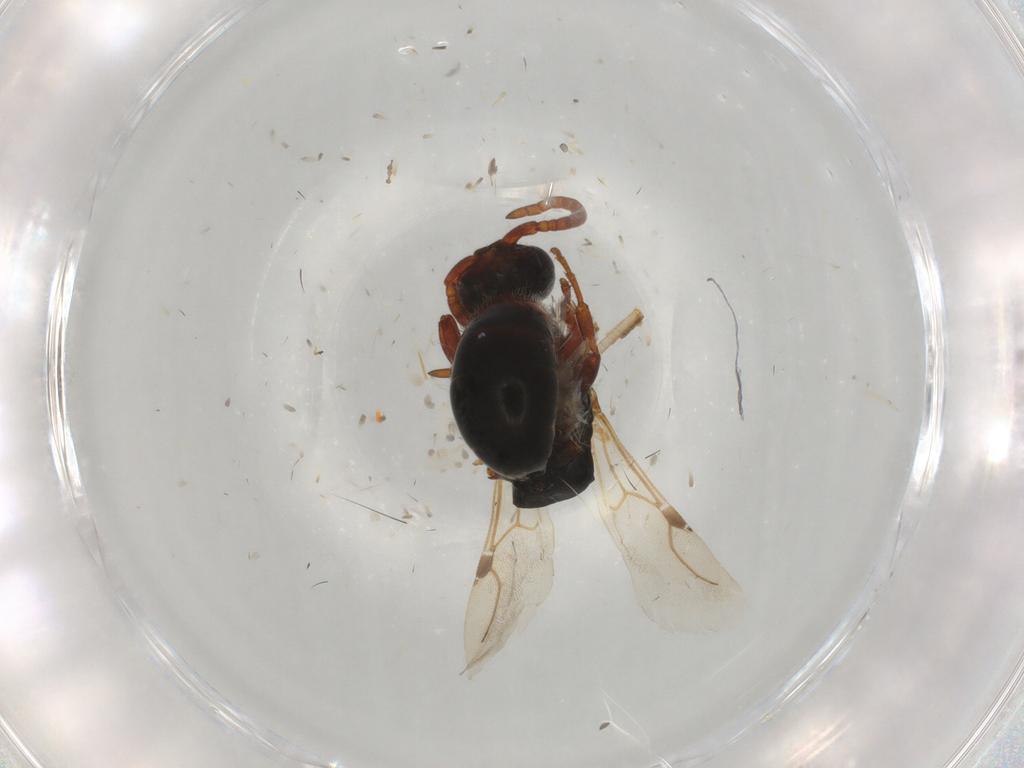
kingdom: Animalia
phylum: Arthropoda
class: Insecta
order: Hymenoptera
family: Bethylidae
